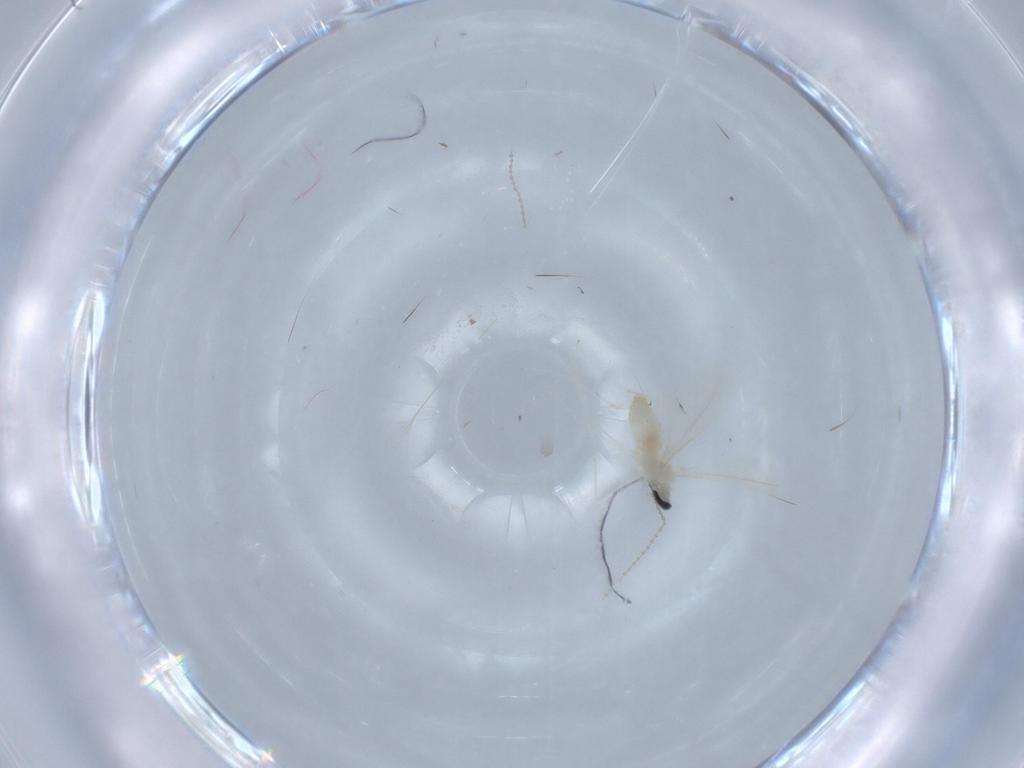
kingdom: Animalia
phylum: Arthropoda
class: Insecta
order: Diptera
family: Cecidomyiidae
